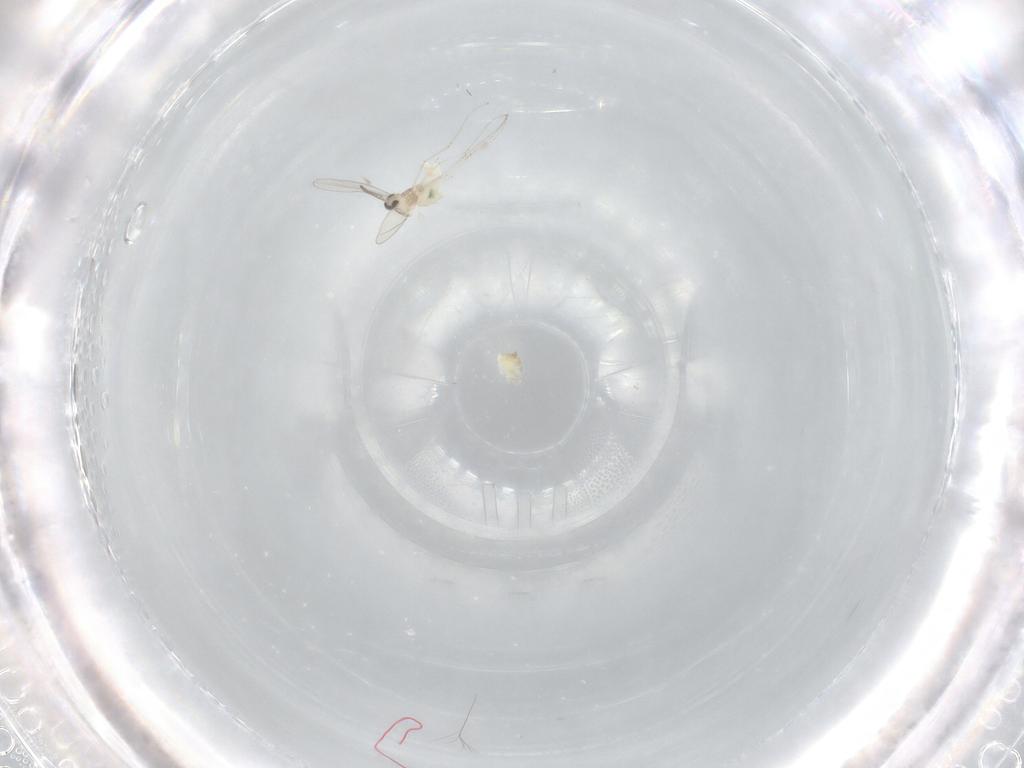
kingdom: Animalia
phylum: Arthropoda
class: Insecta
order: Diptera
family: Cecidomyiidae
